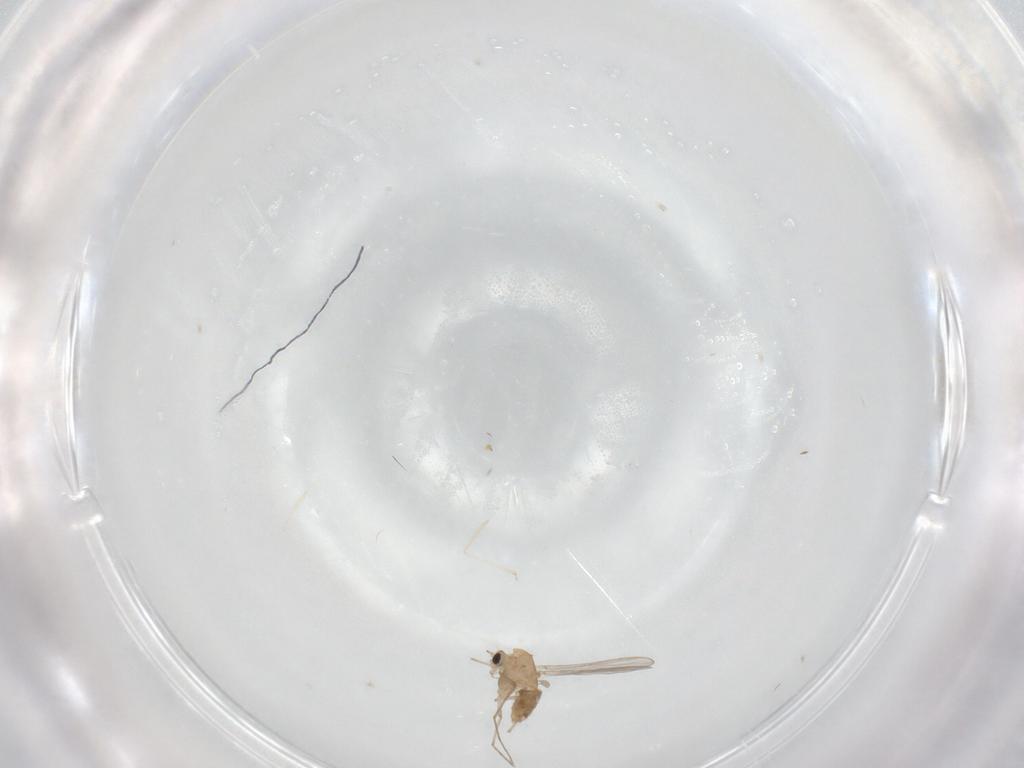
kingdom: Animalia
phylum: Arthropoda
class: Insecta
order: Diptera
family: Chironomidae
